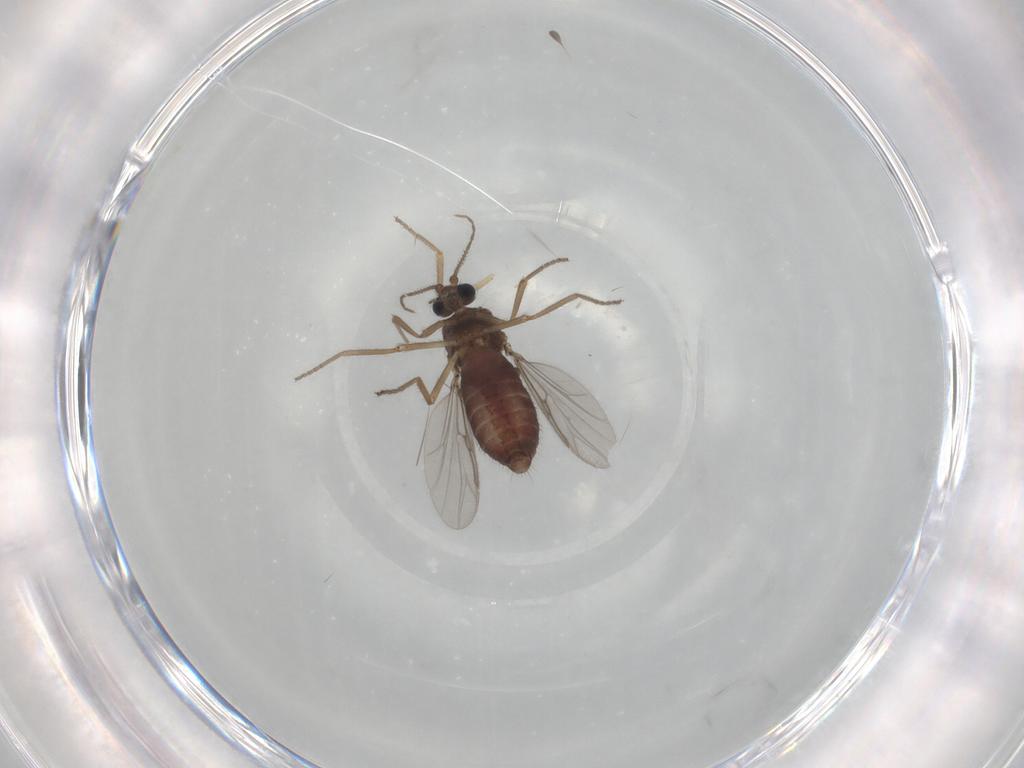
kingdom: Animalia
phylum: Arthropoda
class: Insecta
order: Diptera
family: Ceratopogonidae
